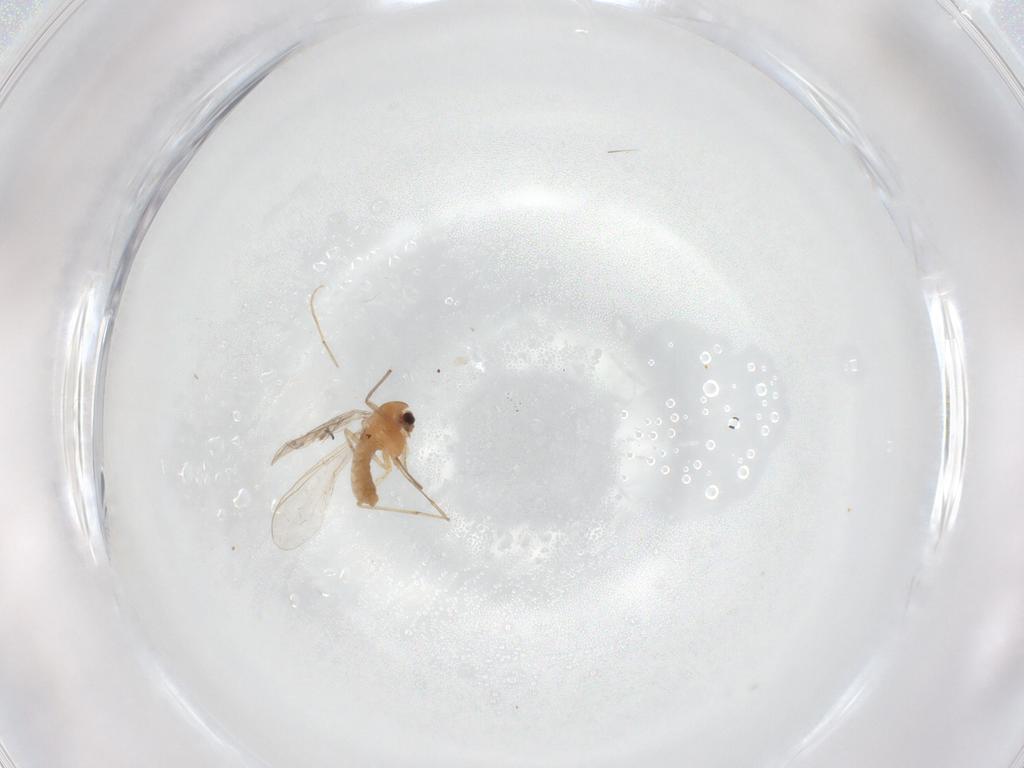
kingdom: Animalia
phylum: Arthropoda
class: Insecta
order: Diptera
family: Chironomidae
